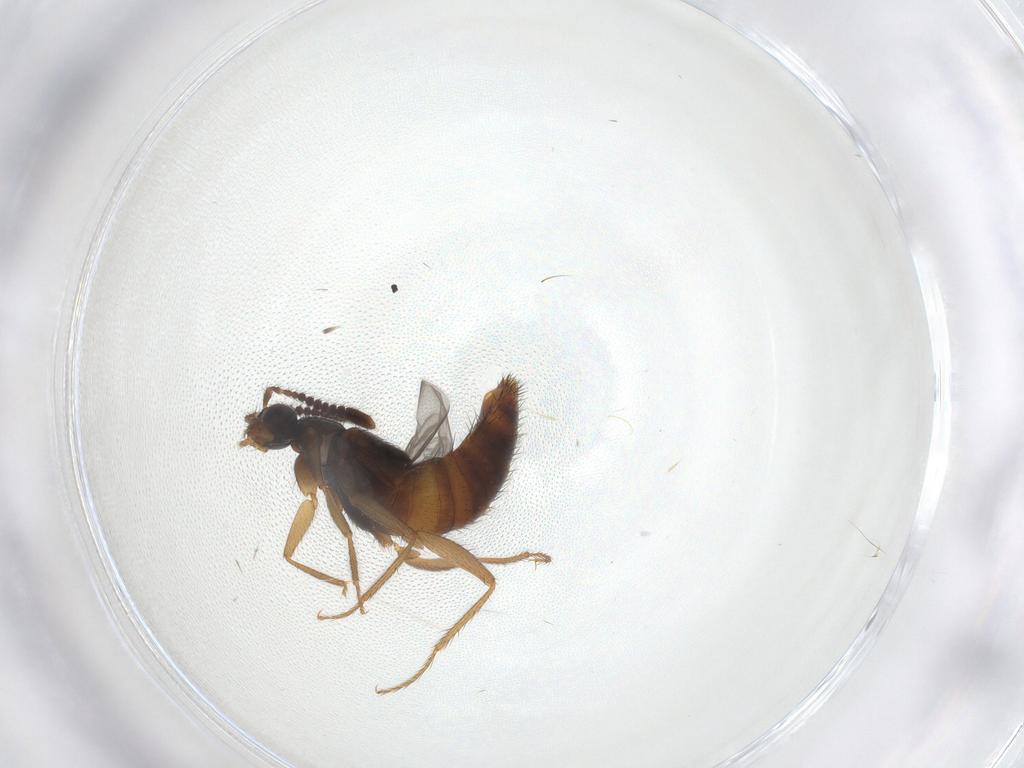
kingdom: Animalia
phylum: Arthropoda
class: Insecta
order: Coleoptera
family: Staphylinidae
